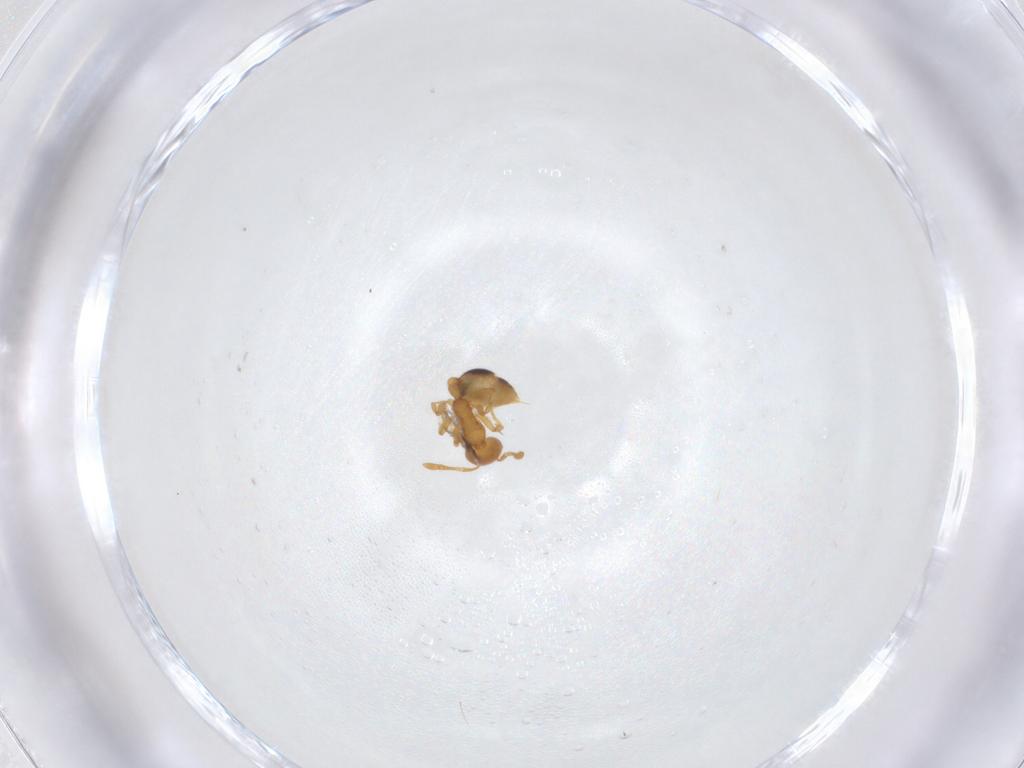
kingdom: Animalia
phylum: Arthropoda
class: Insecta
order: Hymenoptera
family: Formicidae
